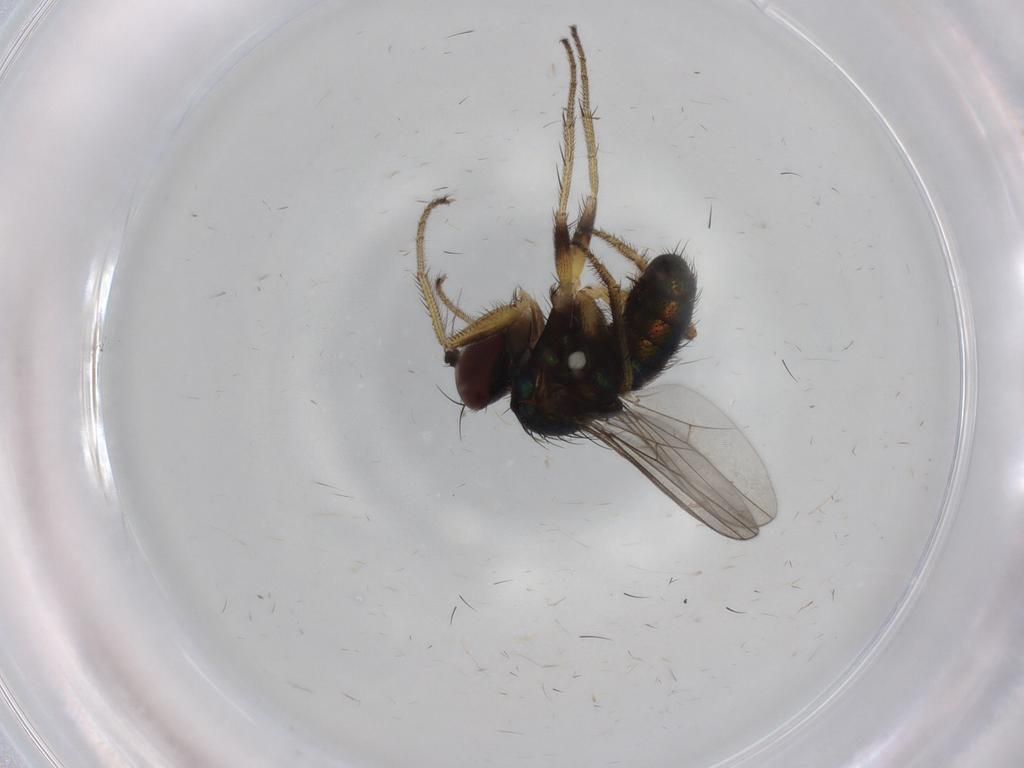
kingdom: Animalia
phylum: Arthropoda
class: Insecta
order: Diptera
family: Dolichopodidae
